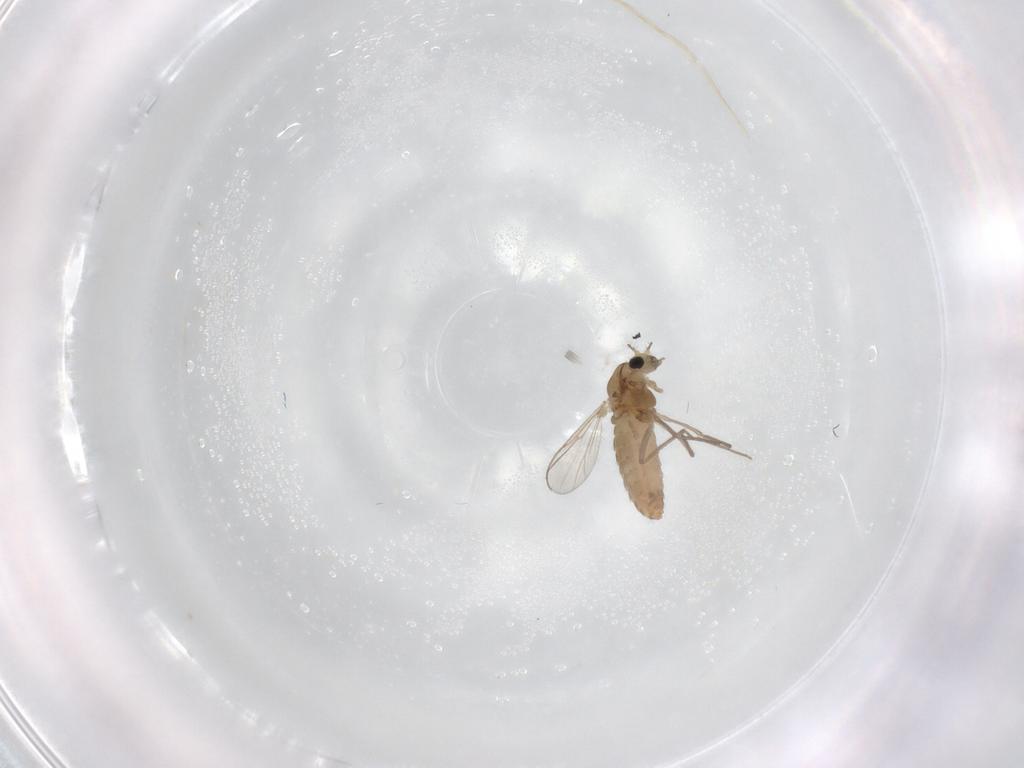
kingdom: Animalia
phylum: Arthropoda
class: Insecta
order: Diptera
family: Chironomidae
